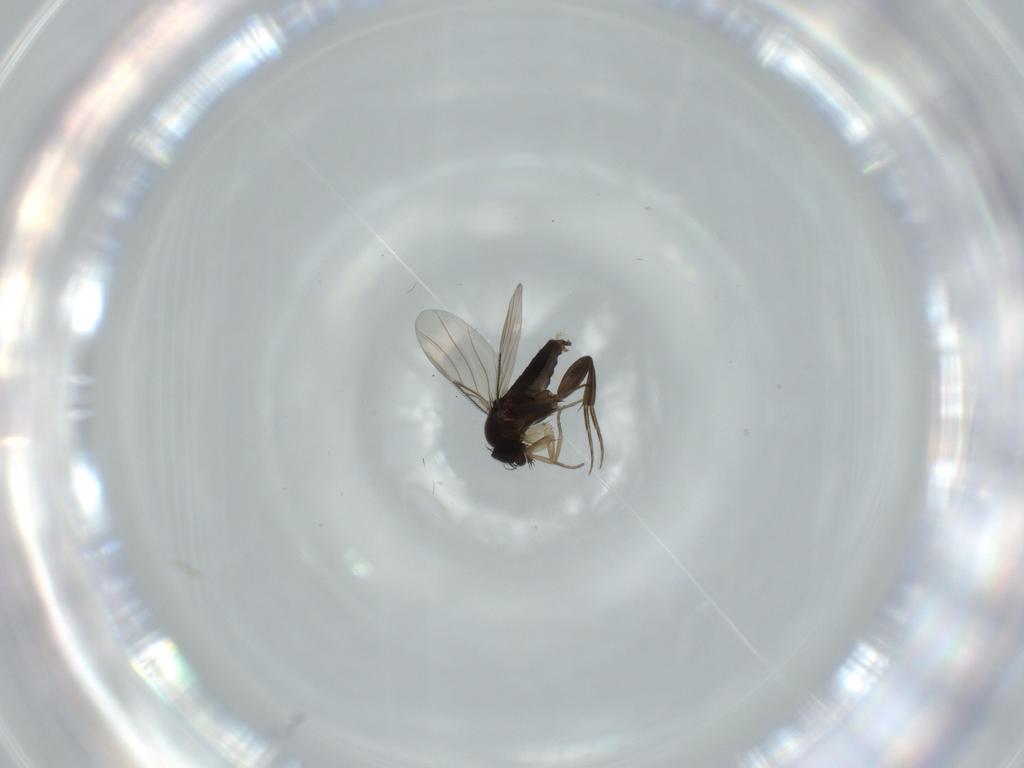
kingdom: Animalia
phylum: Arthropoda
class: Insecta
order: Diptera
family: Phoridae
